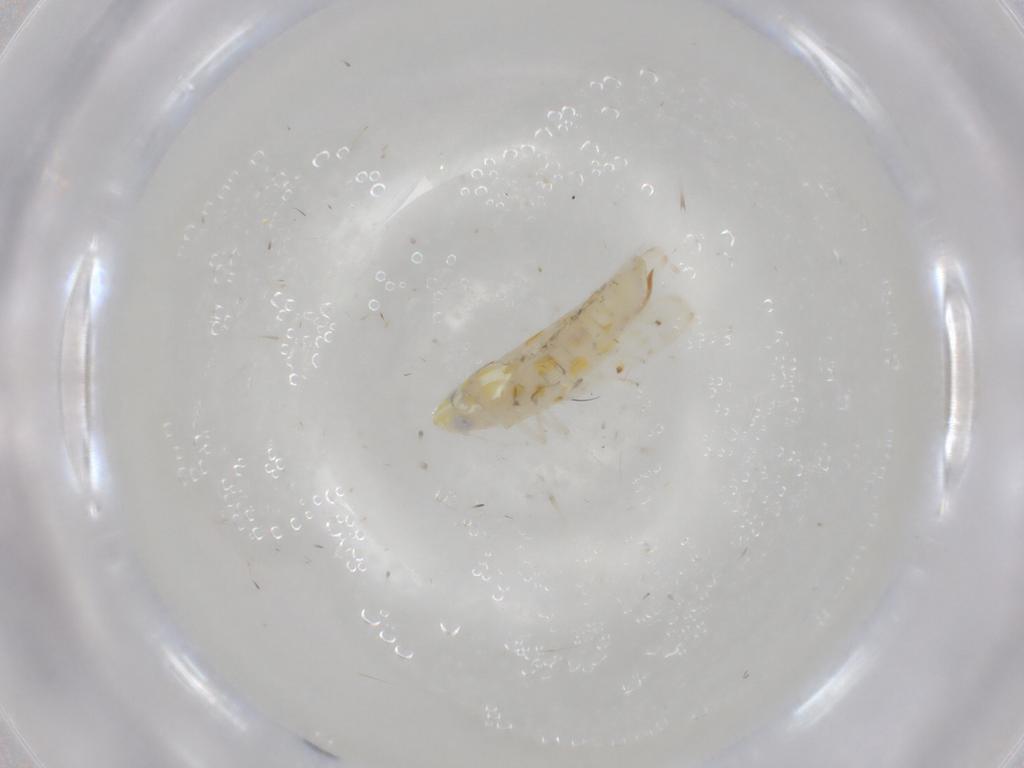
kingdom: Animalia
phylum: Arthropoda
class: Insecta
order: Hemiptera
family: Cicadellidae
